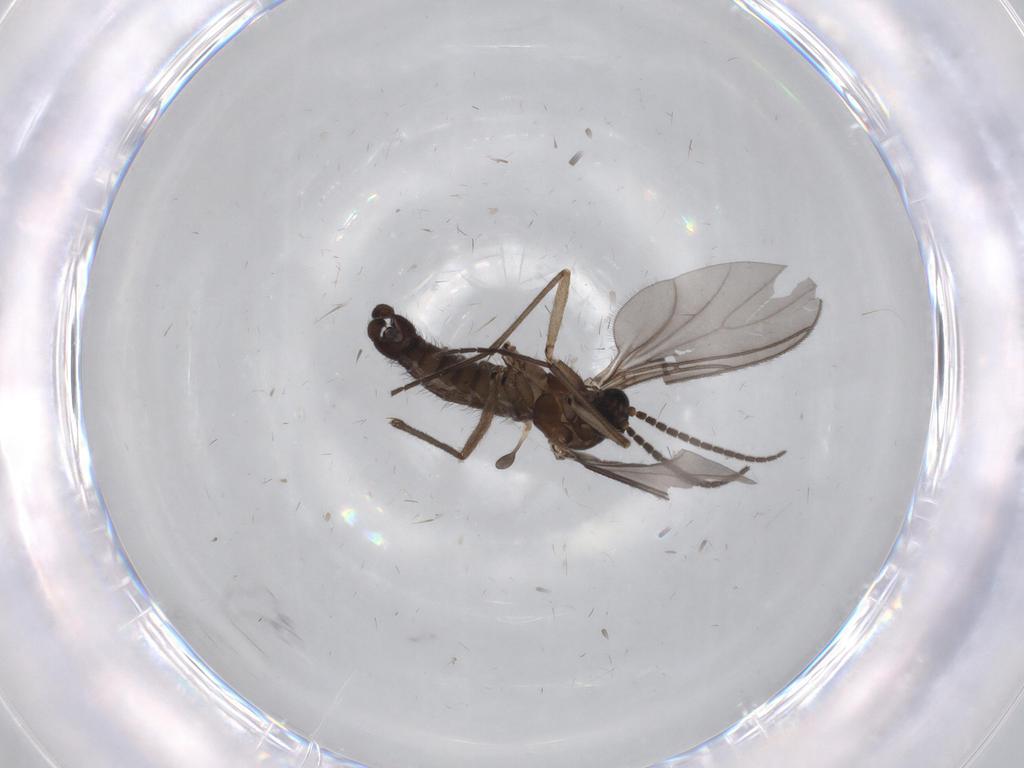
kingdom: Animalia
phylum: Arthropoda
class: Insecta
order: Diptera
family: Sciaridae
